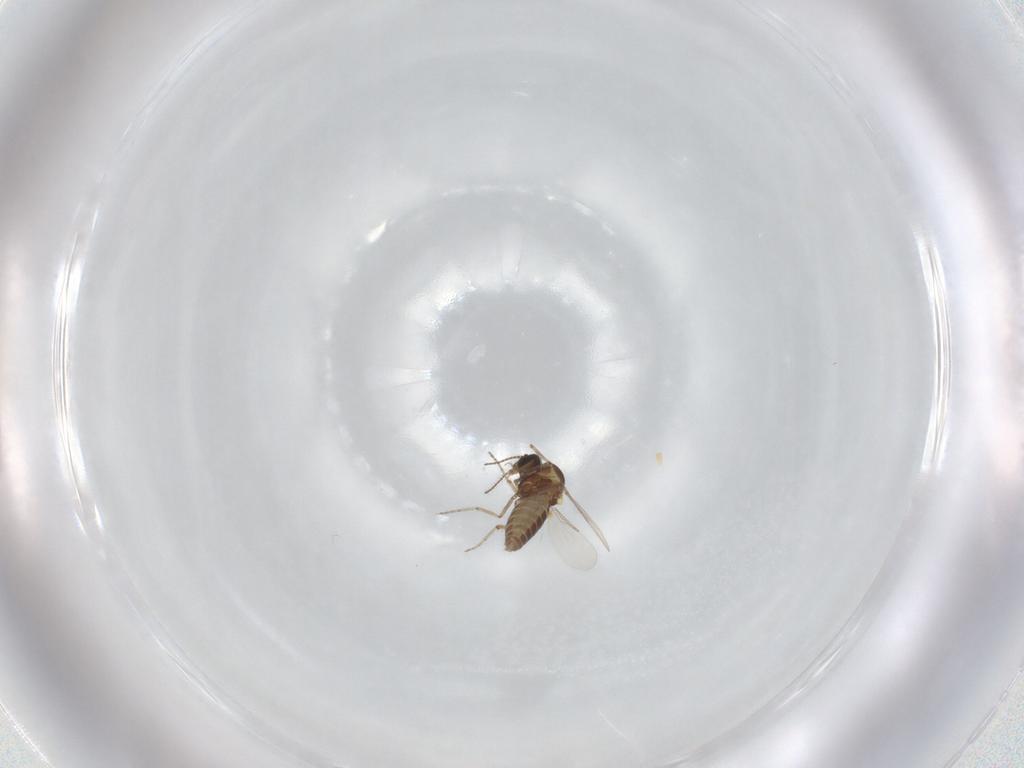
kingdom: Animalia
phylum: Arthropoda
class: Insecta
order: Diptera
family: Ceratopogonidae
